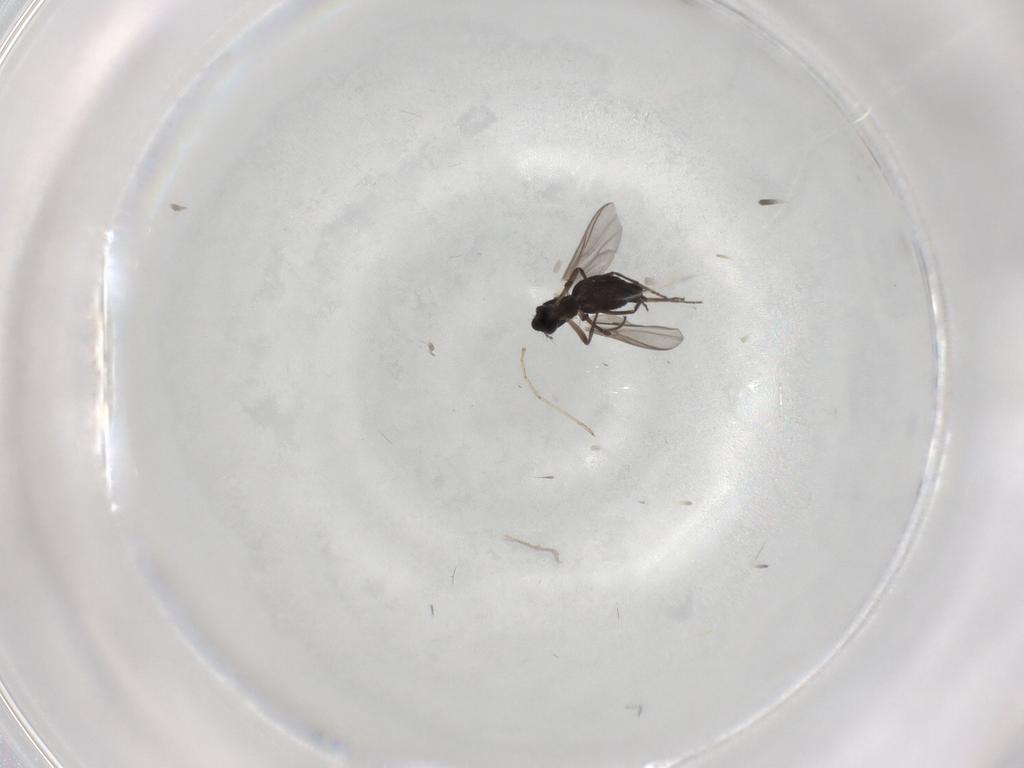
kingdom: Animalia
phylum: Arthropoda
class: Insecta
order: Diptera
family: Chironomidae
